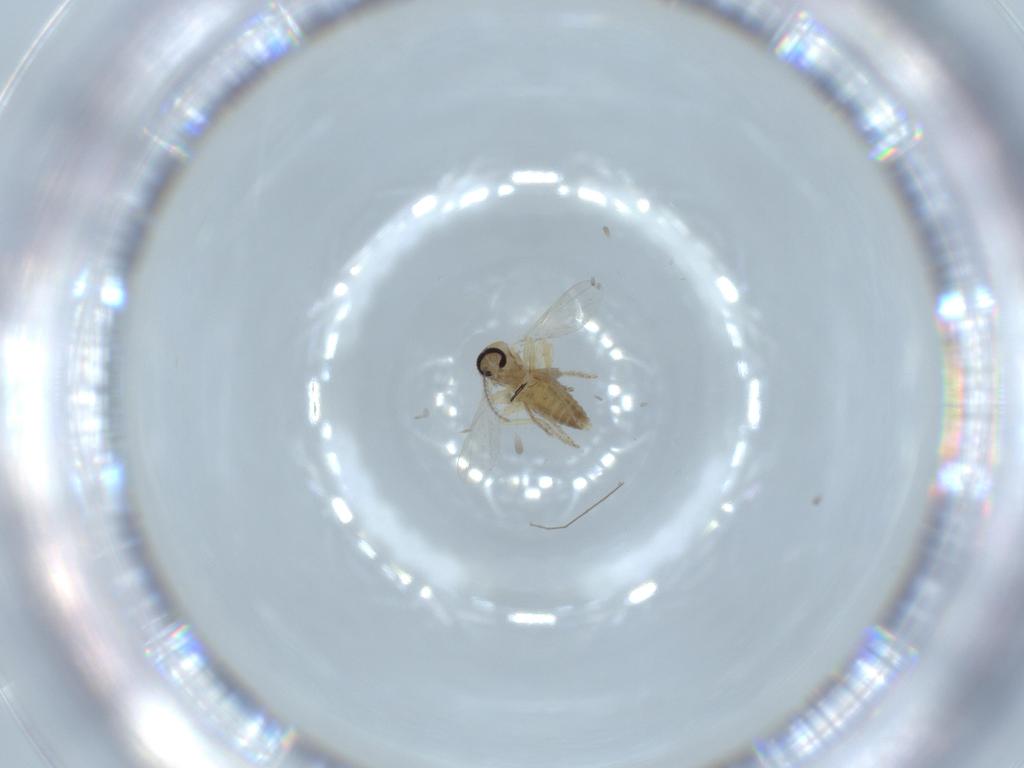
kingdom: Animalia
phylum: Arthropoda
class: Insecta
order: Diptera
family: Ceratopogonidae
